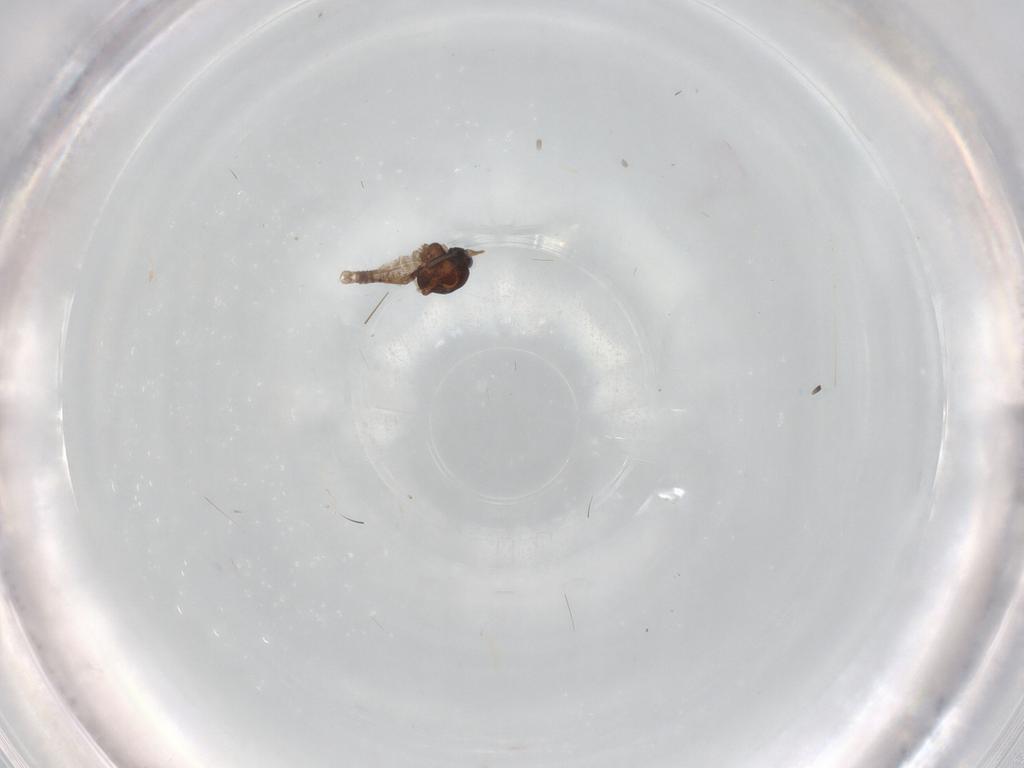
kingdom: Animalia
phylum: Arthropoda
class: Insecta
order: Diptera
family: Ceratopogonidae
